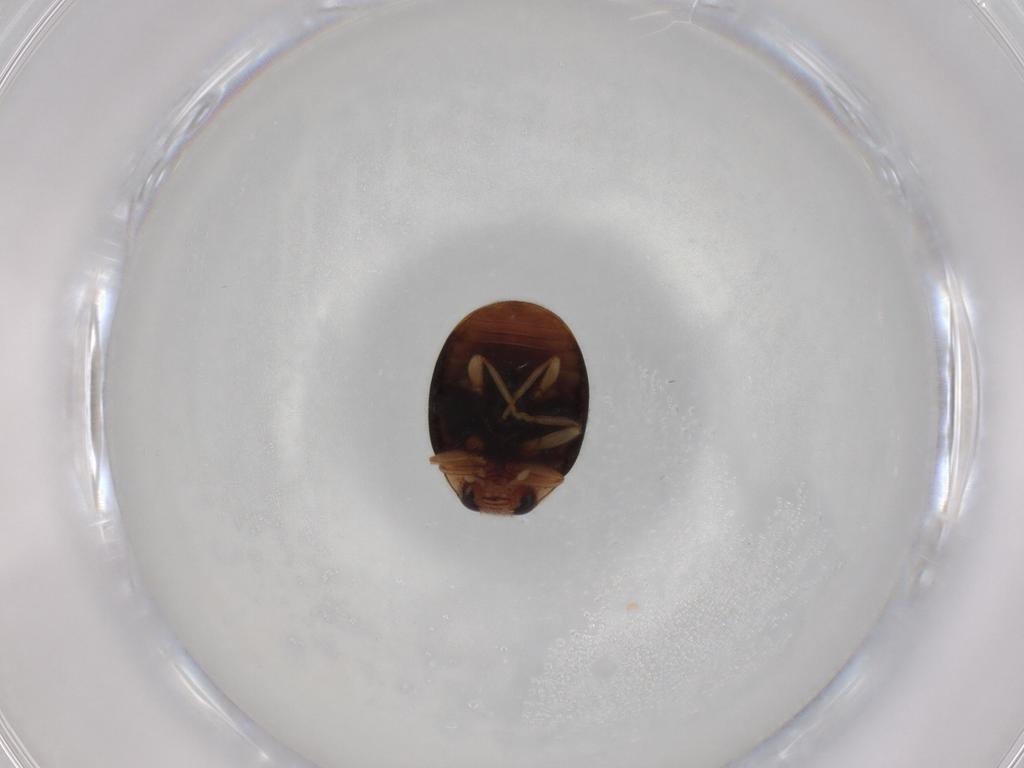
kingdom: Animalia
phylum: Arthropoda
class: Insecta
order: Coleoptera
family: Coccinellidae
